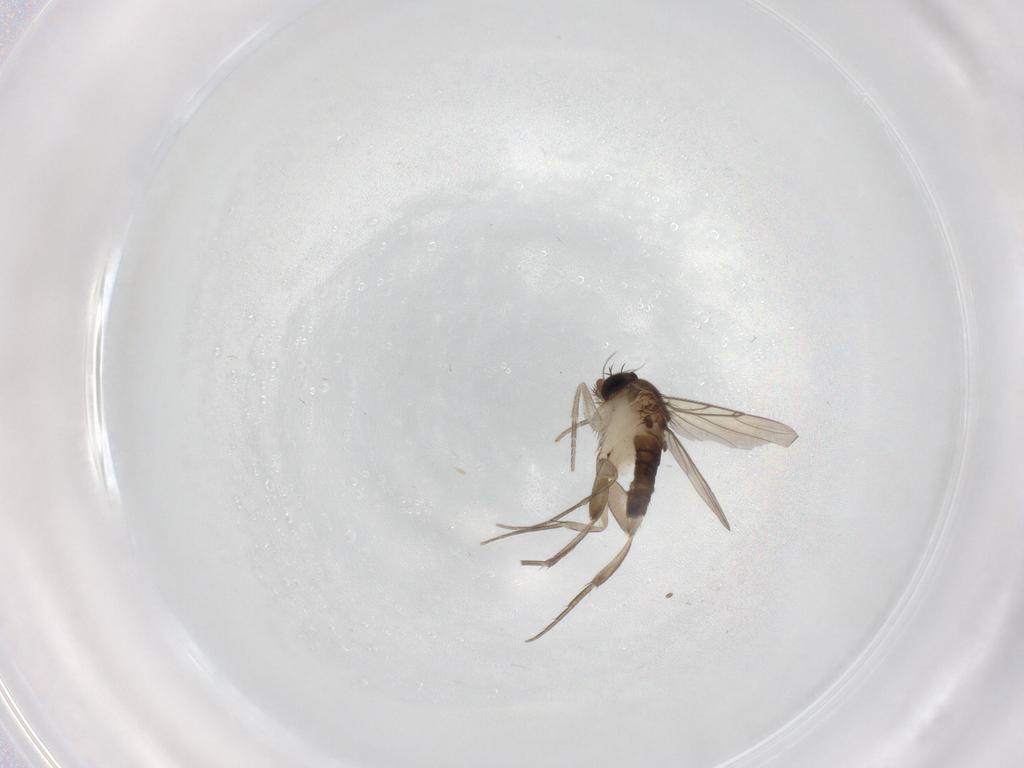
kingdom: Animalia
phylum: Arthropoda
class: Insecta
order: Diptera
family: Phoridae
